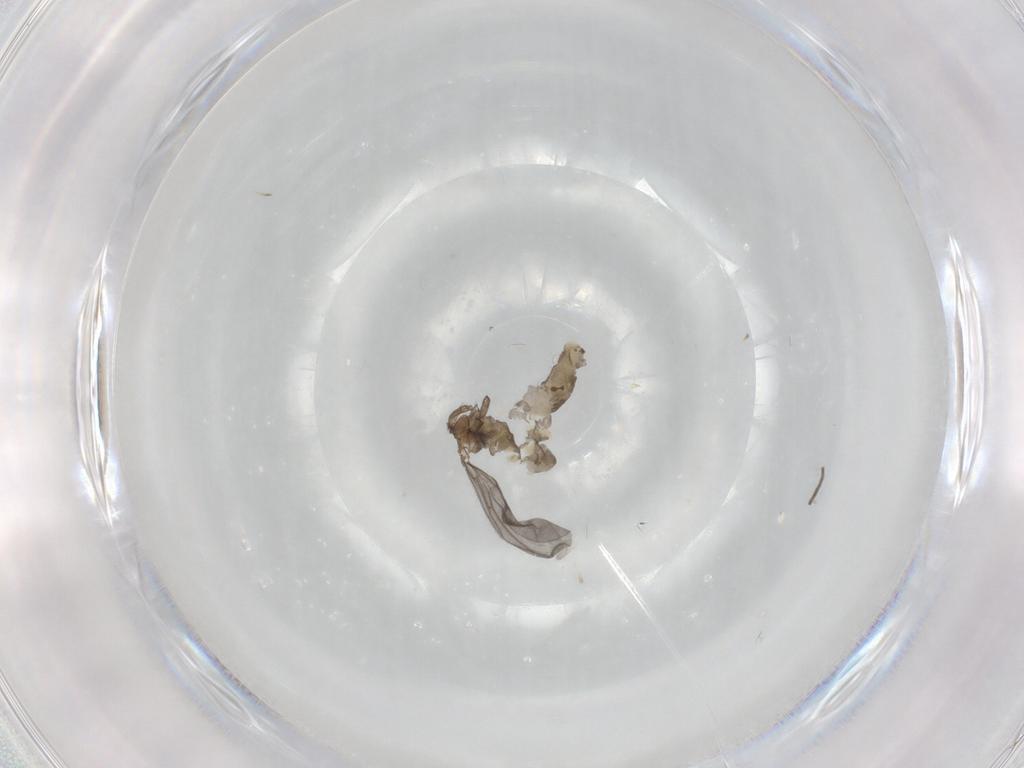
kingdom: Animalia
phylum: Arthropoda
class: Insecta
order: Diptera
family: Sciaridae
